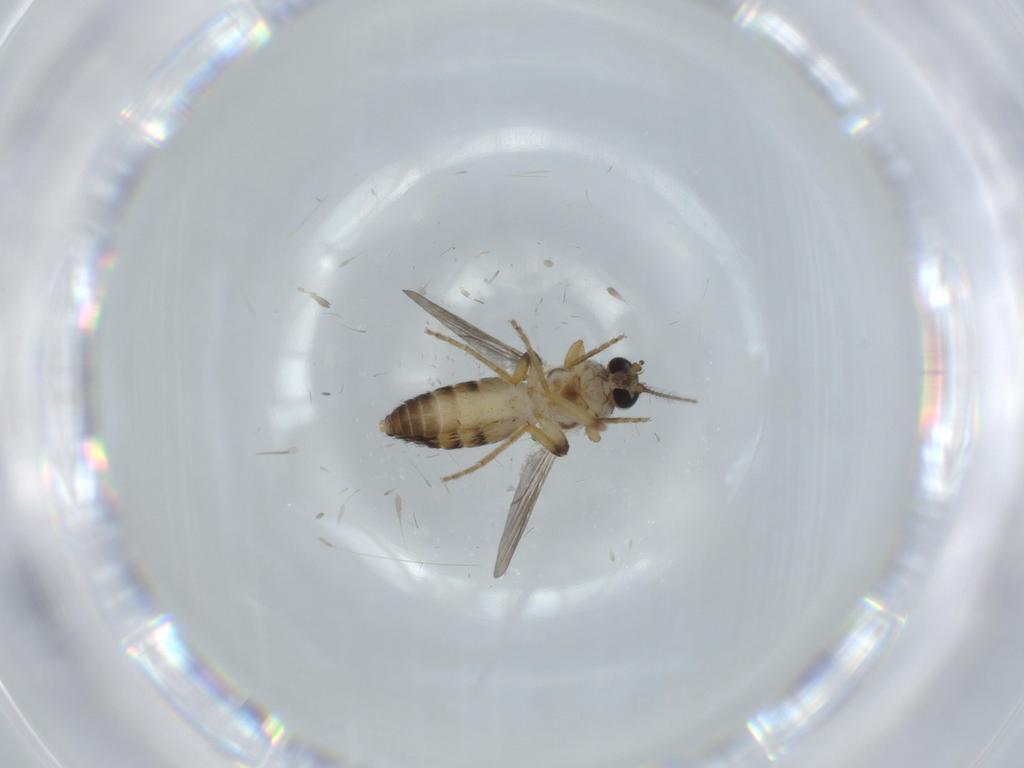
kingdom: Animalia
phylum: Arthropoda
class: Insecta
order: Diptera
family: Ceratopogonidae
